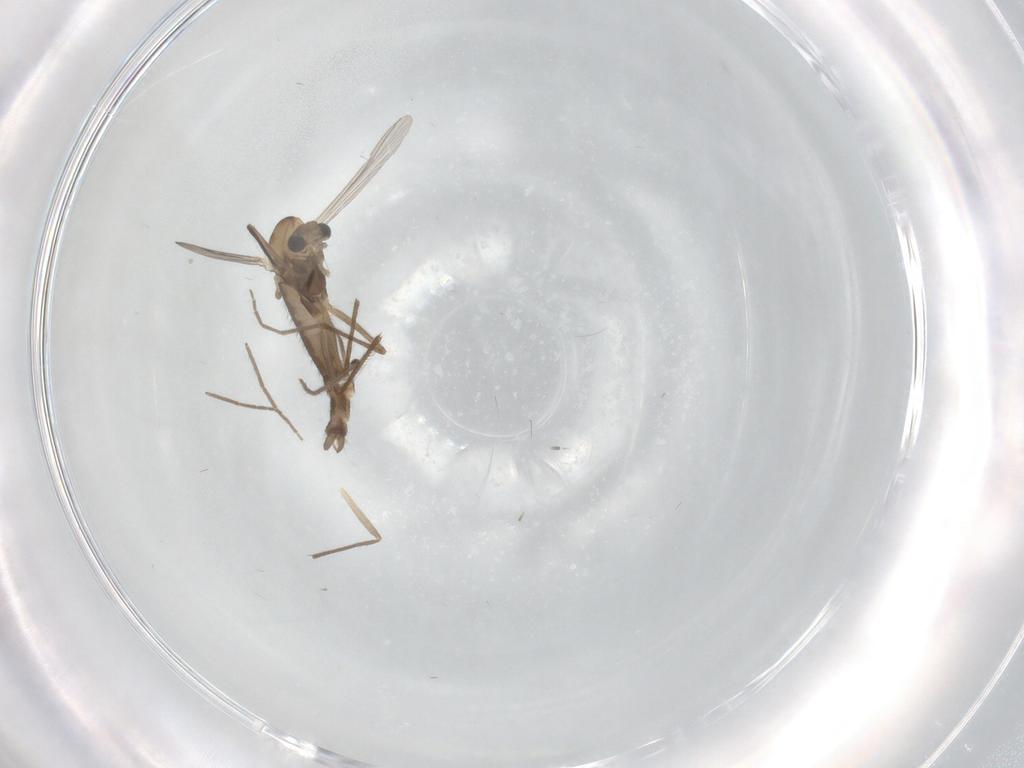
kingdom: Animalia
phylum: Arthropoda
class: Insecta
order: Diptera
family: Chironomidae
